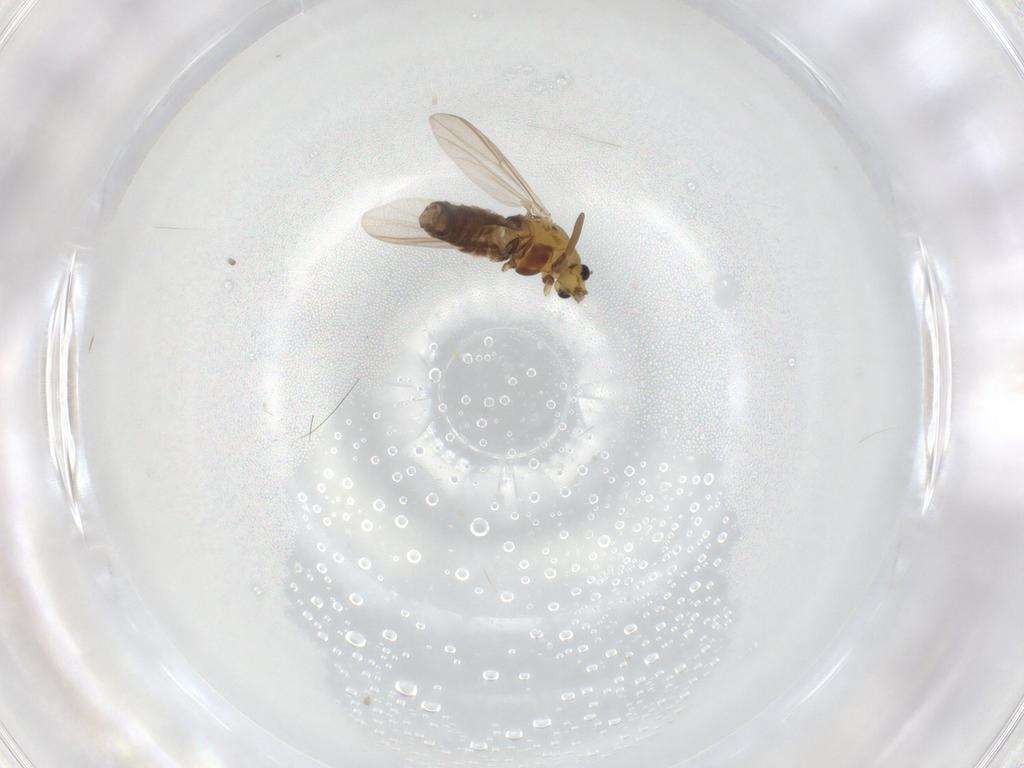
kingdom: Animalia
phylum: Arthropoda
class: Insecta
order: Diptera
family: Chironomidae
